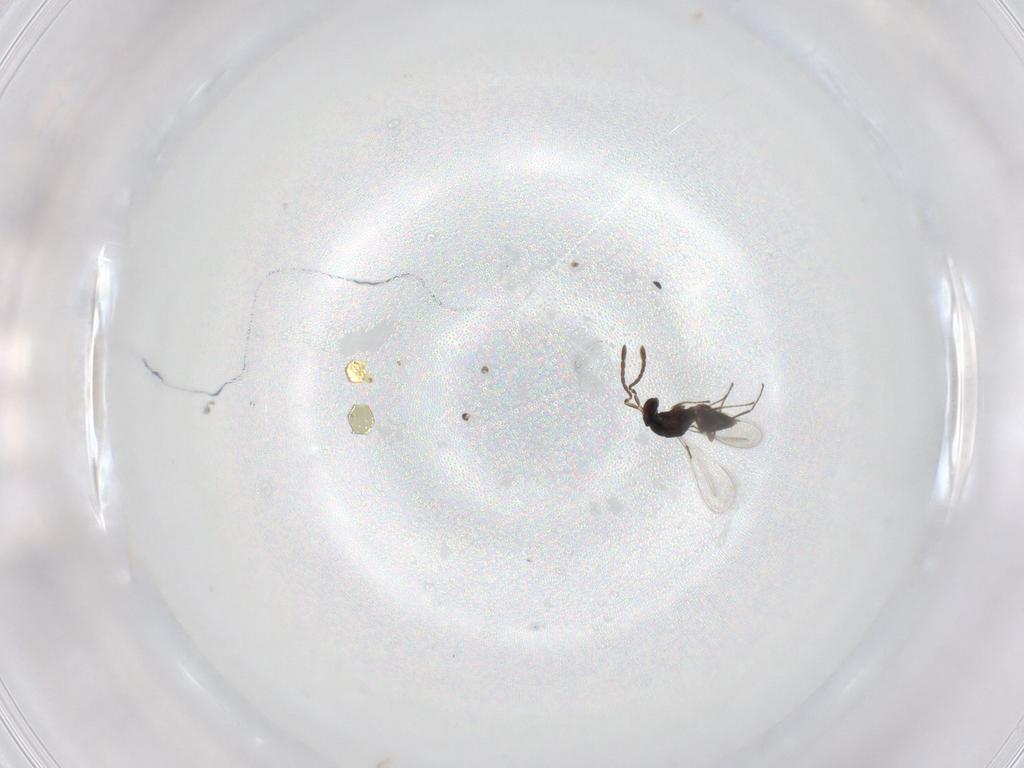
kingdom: Animalia
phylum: Arthropoda
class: Insecta
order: Hymenoptera
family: Mymaridae
